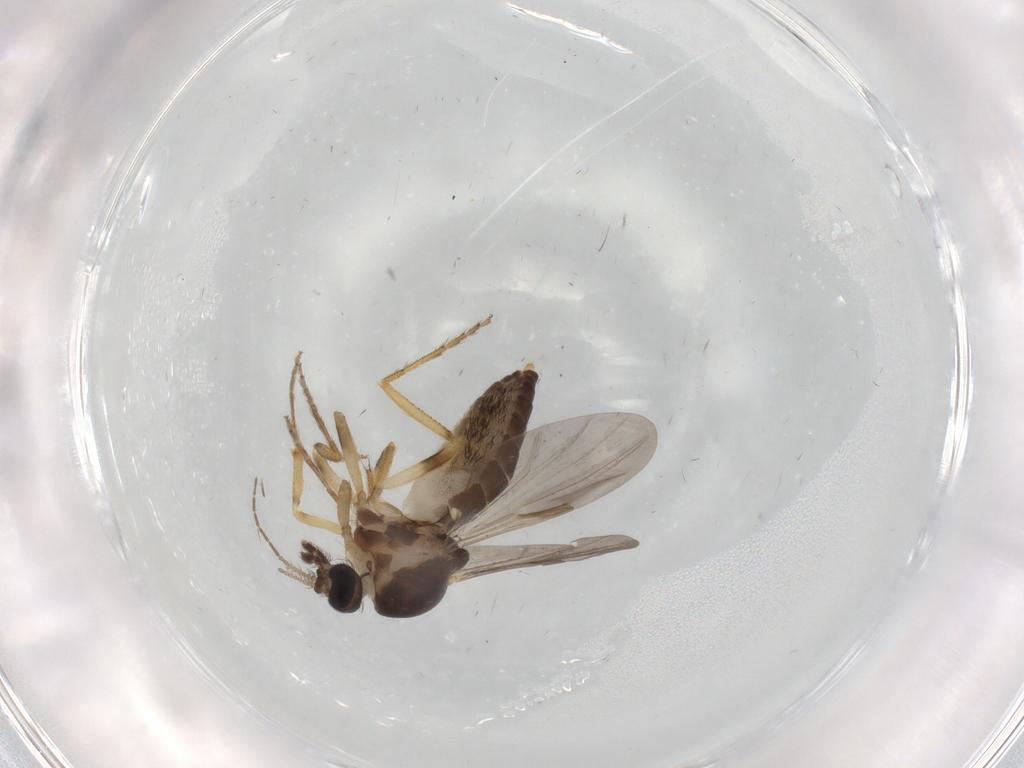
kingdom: Animalia
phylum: Arthropoda
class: Insecta
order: Diptera
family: Ceratopogonidae
